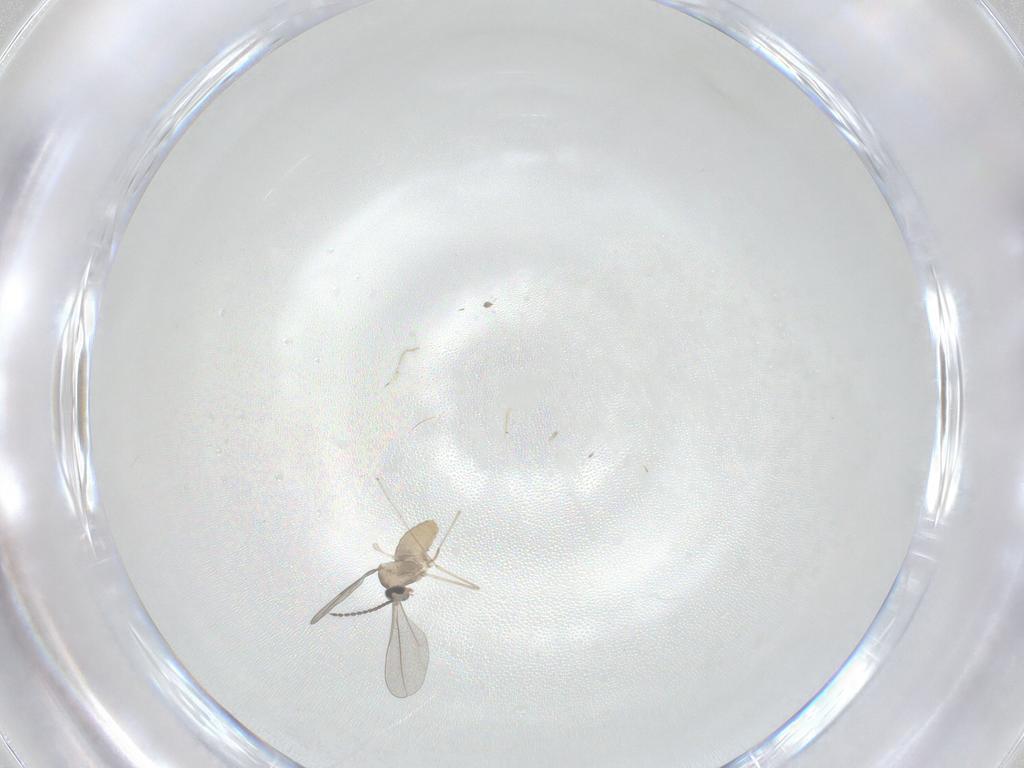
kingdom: Animalia
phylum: Arthropoda
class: Insecta
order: Diptera
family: Cecidomyiidae
